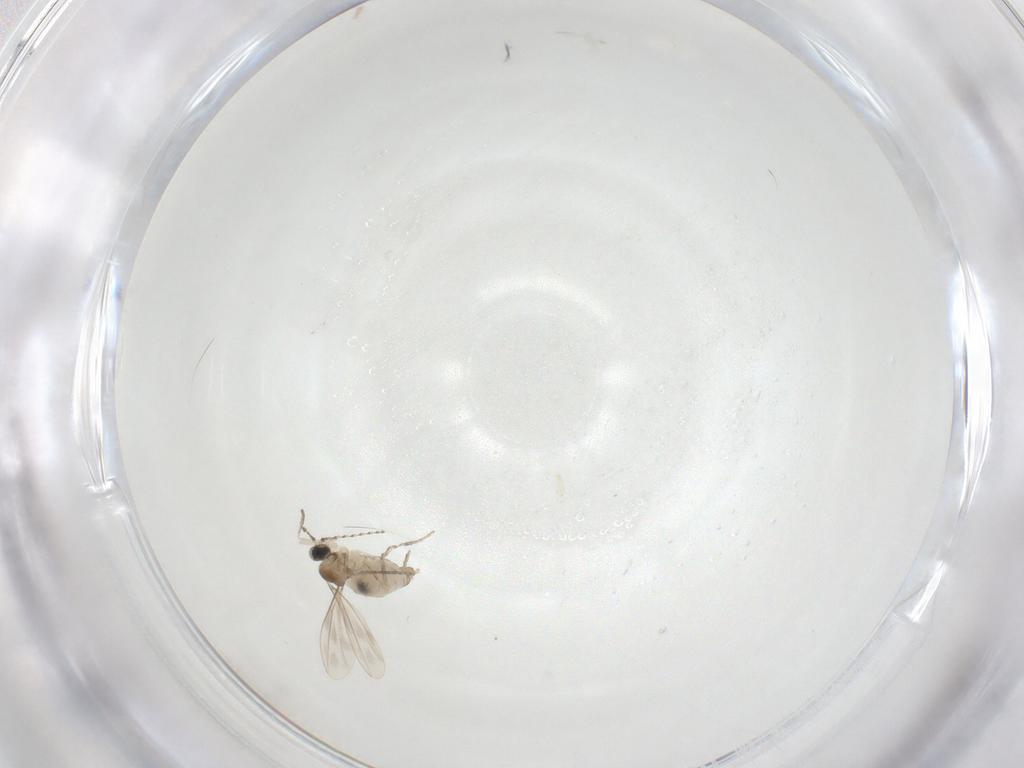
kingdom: Animalia
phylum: Arthropoda
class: Insecta
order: Diptera
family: Cecidomyiidae
